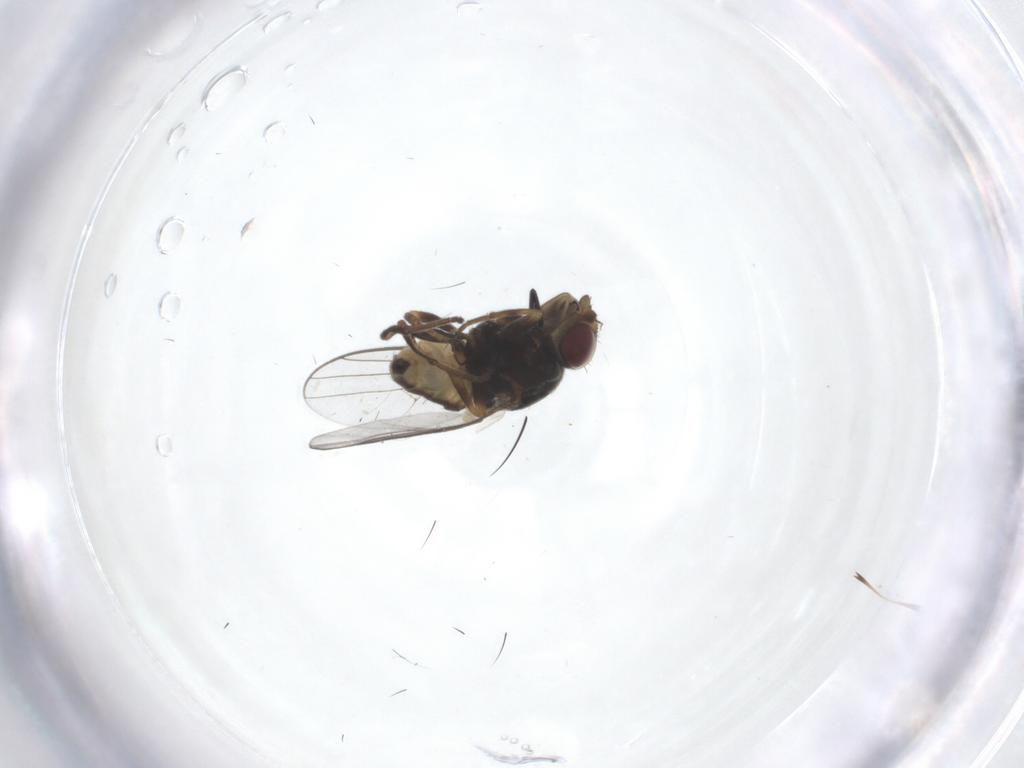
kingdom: Animalia
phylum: Arthropoda
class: Insecta
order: Diptera
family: Chloropidae
